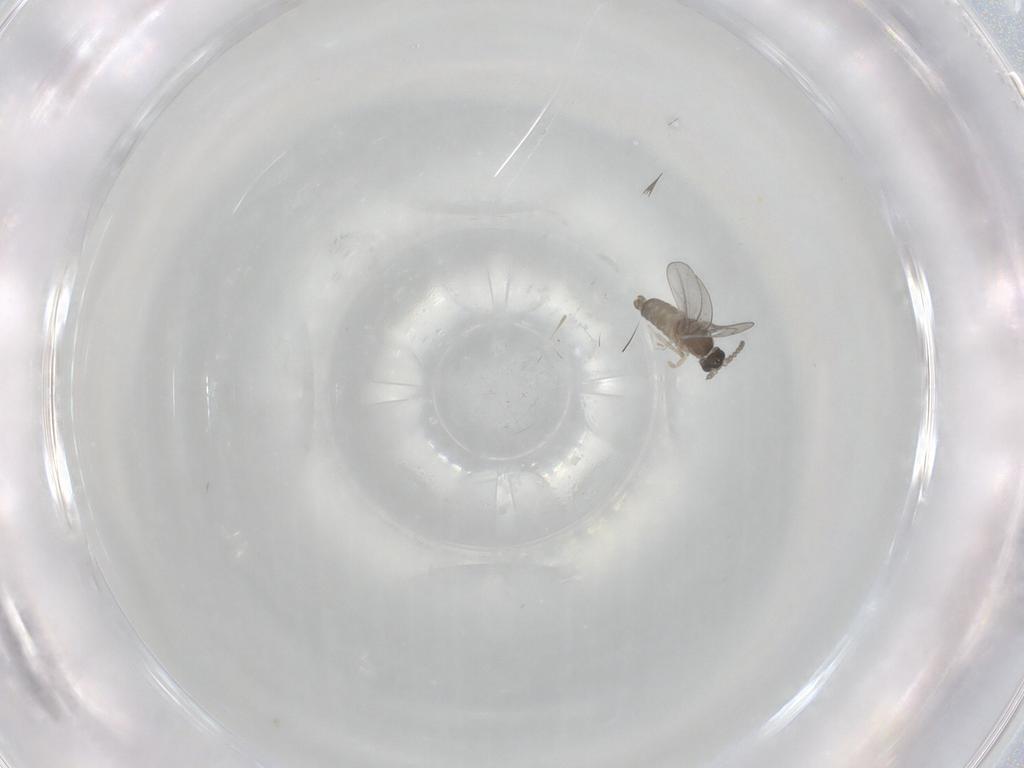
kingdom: Animalia
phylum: Arthropoda
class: Insecta
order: Diptera
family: Cecidomyiidae
